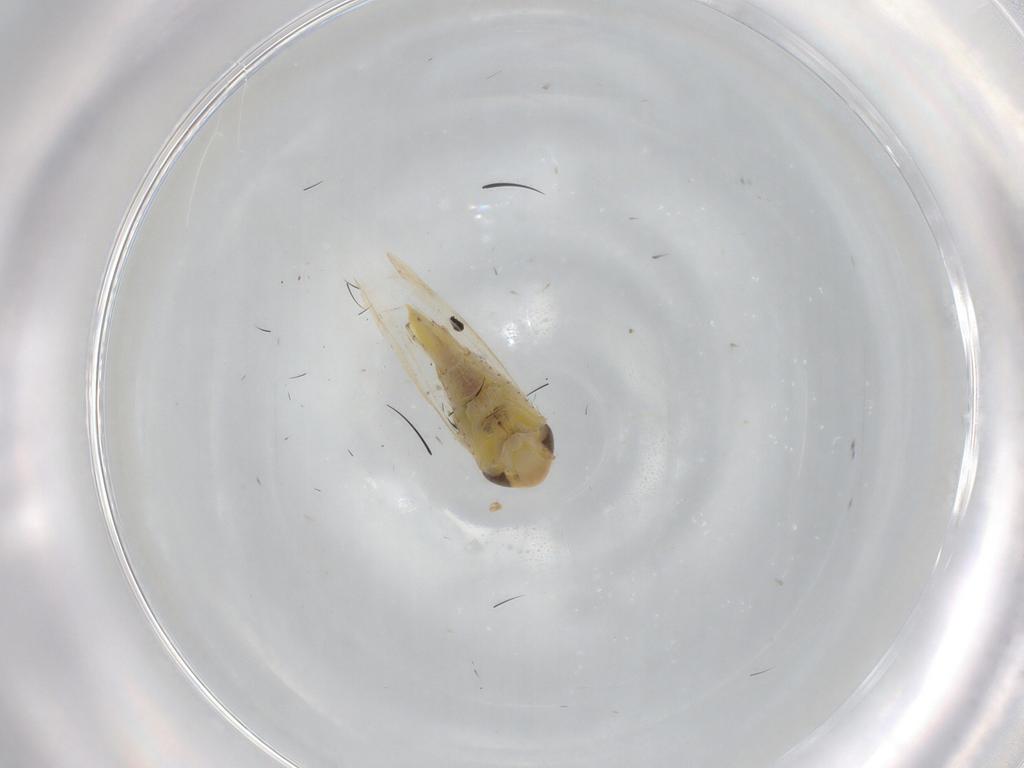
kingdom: Animalia
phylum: Arthropoda
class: Insecta
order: Hemiptera
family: Cicadellidae
